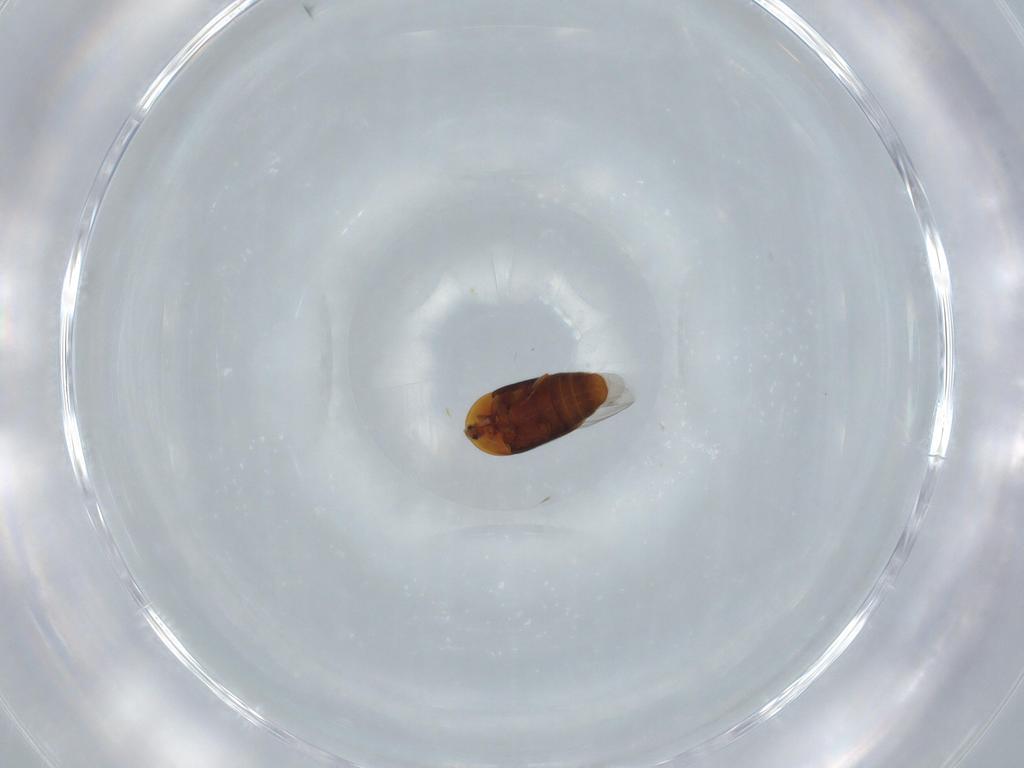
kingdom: Animalia
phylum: Arthropoda
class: Insecta
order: Coleoptera
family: Corylophidae
